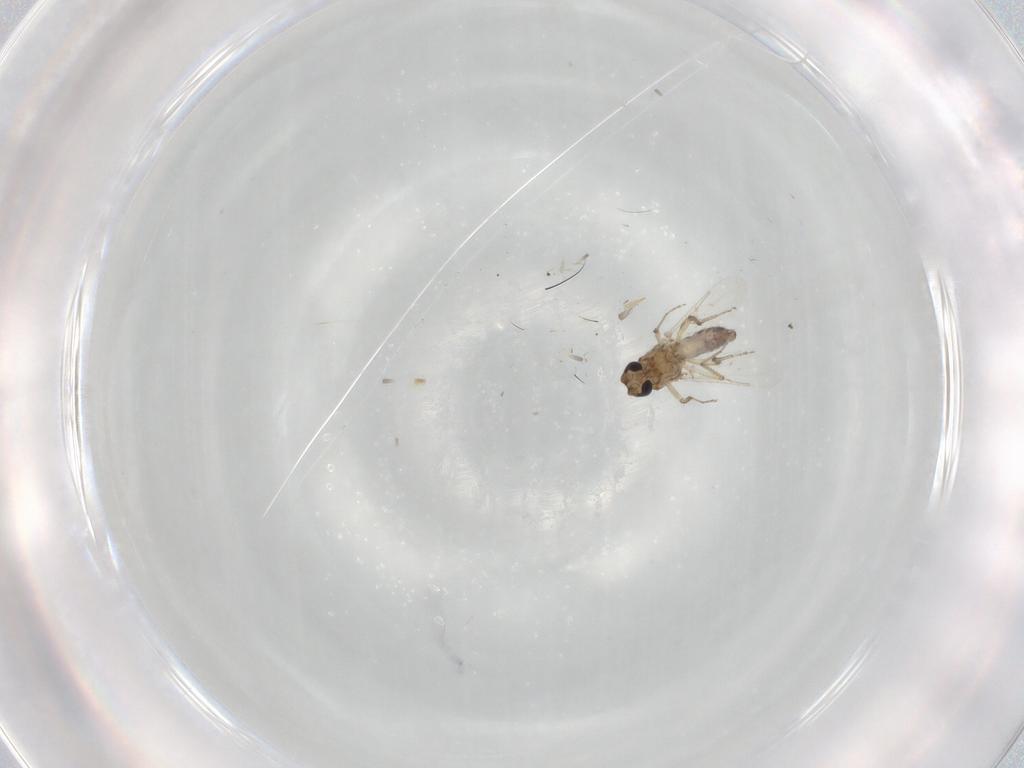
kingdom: Animalia
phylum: Arthropoda
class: Insecta
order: Diptera
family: Ceratopogonidae
